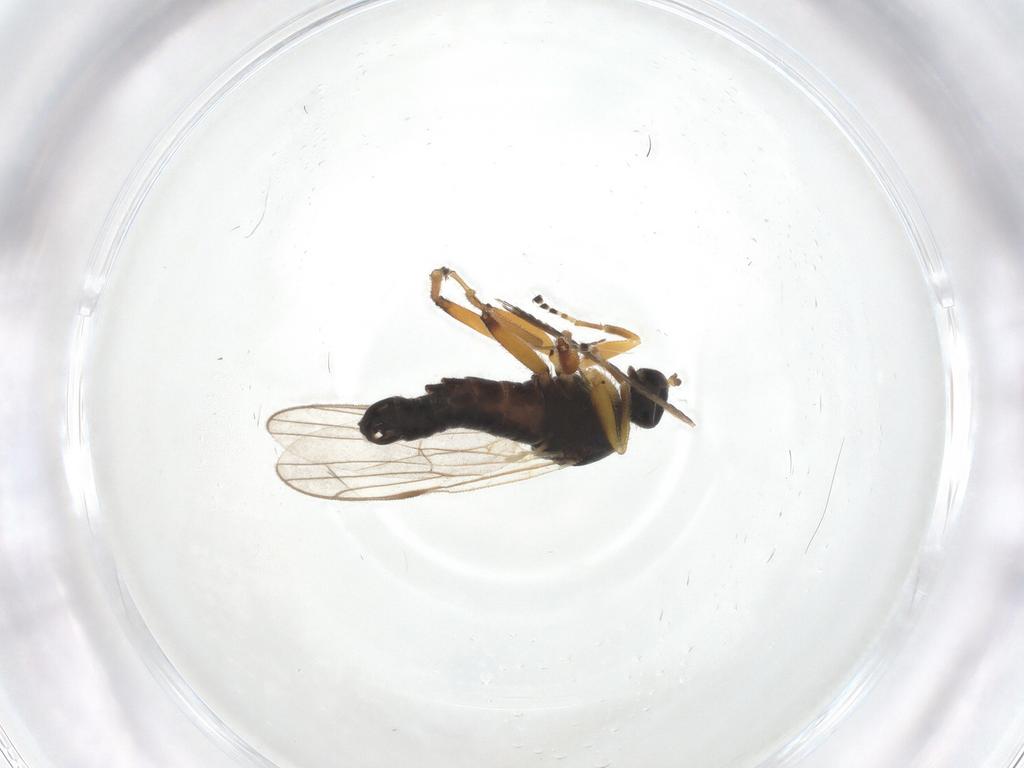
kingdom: Animalia
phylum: Arthropoda
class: Insecta
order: Diptera
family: Hybotidae
